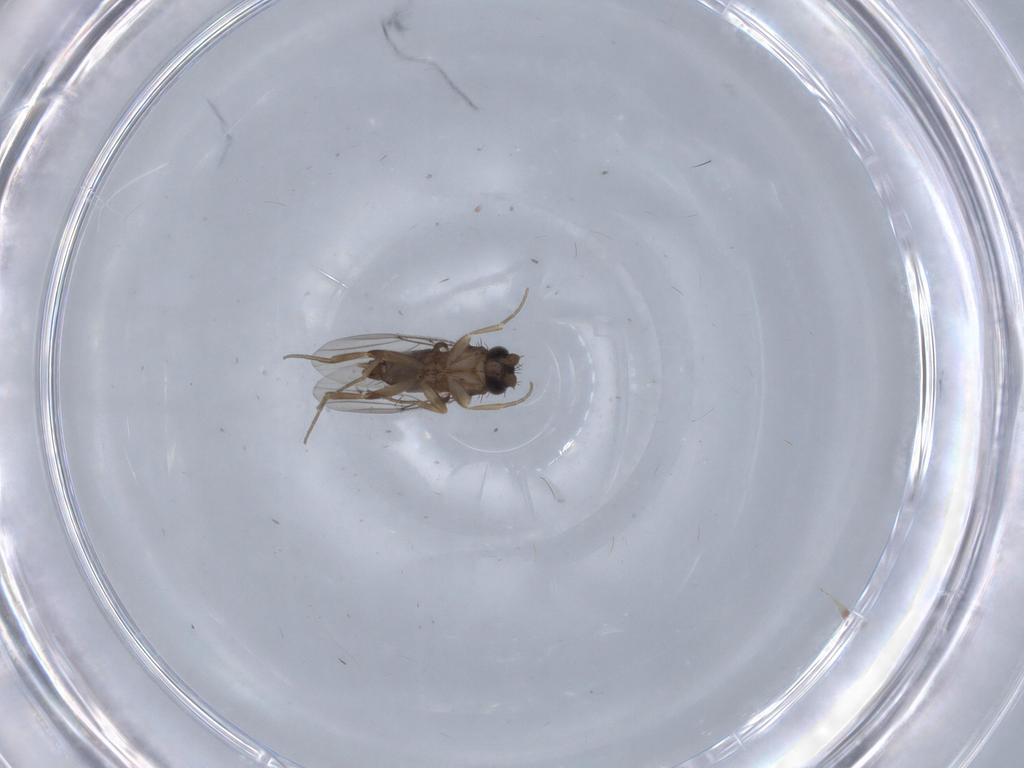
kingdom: Animalia
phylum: Arthropoda
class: Insecta
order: Diptera
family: Phoridae
